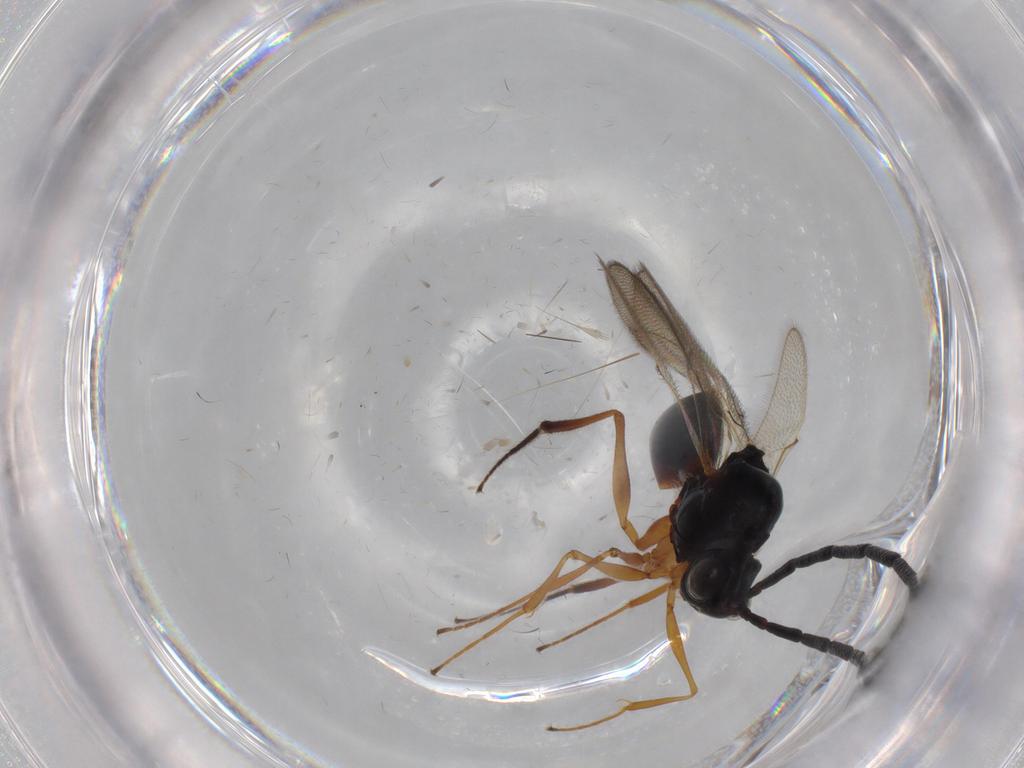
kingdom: Animalia
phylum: Arthropoda
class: Insecta
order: Hymenoptera
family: Figitidae
